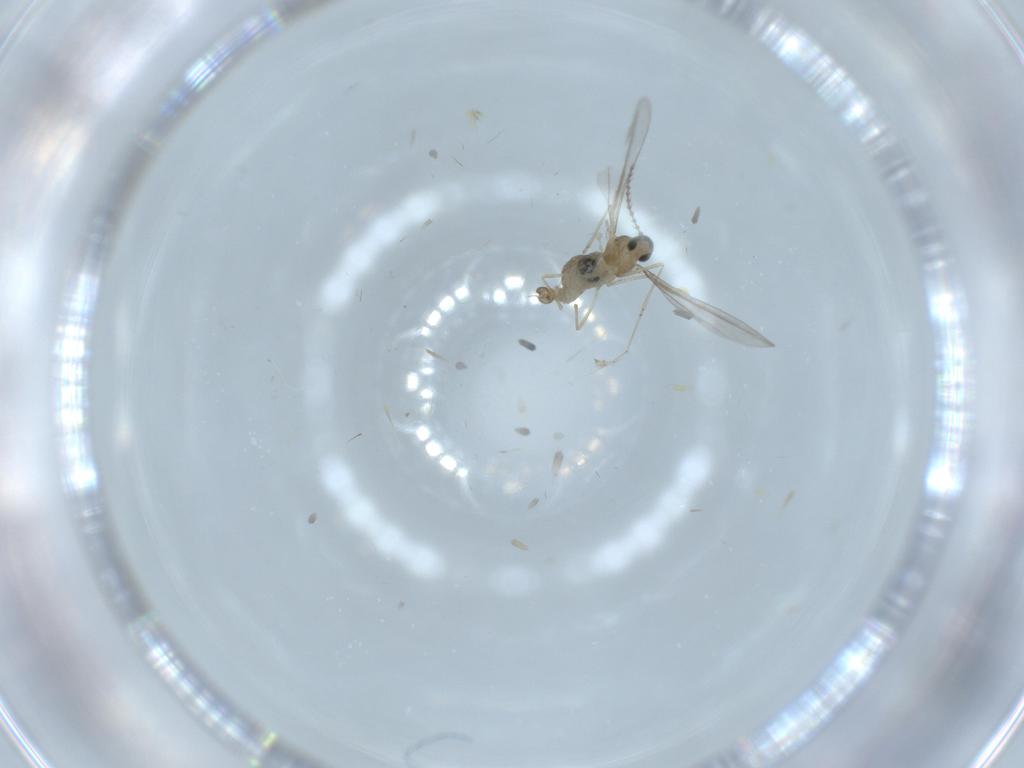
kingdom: Animalia
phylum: Arthropoda
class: Insecta
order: Diptera
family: Cecidomyiidae
